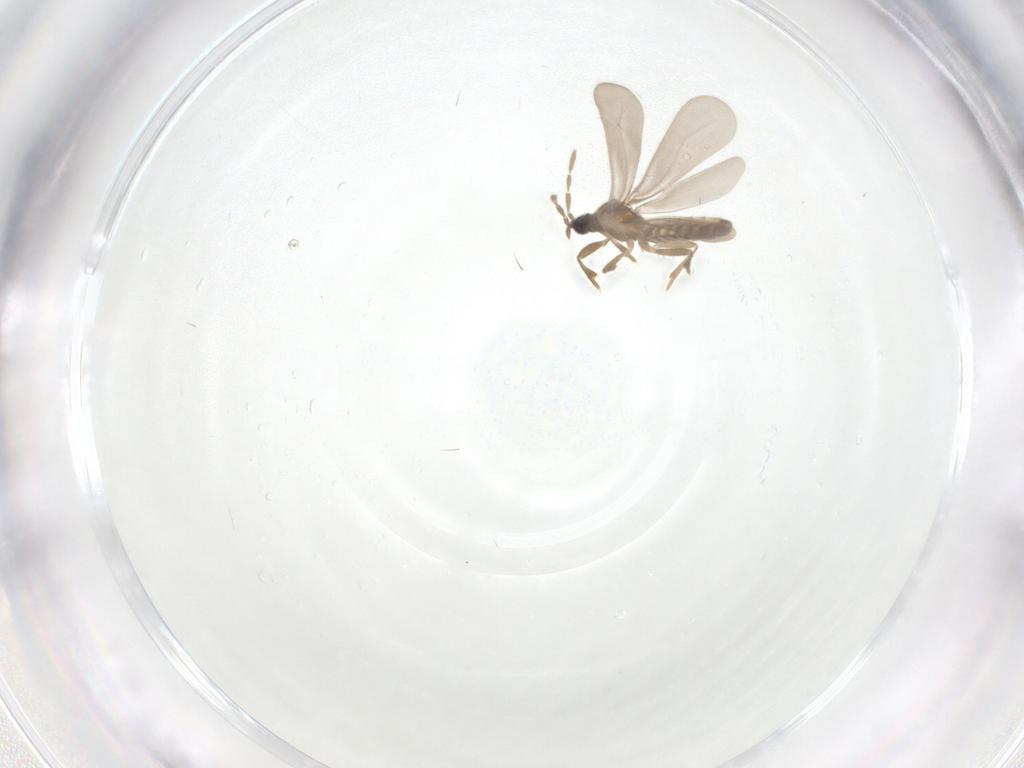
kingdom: Animalia
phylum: Arthropoda
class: Insecta
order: Hemiptera
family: Enicocephalidae
